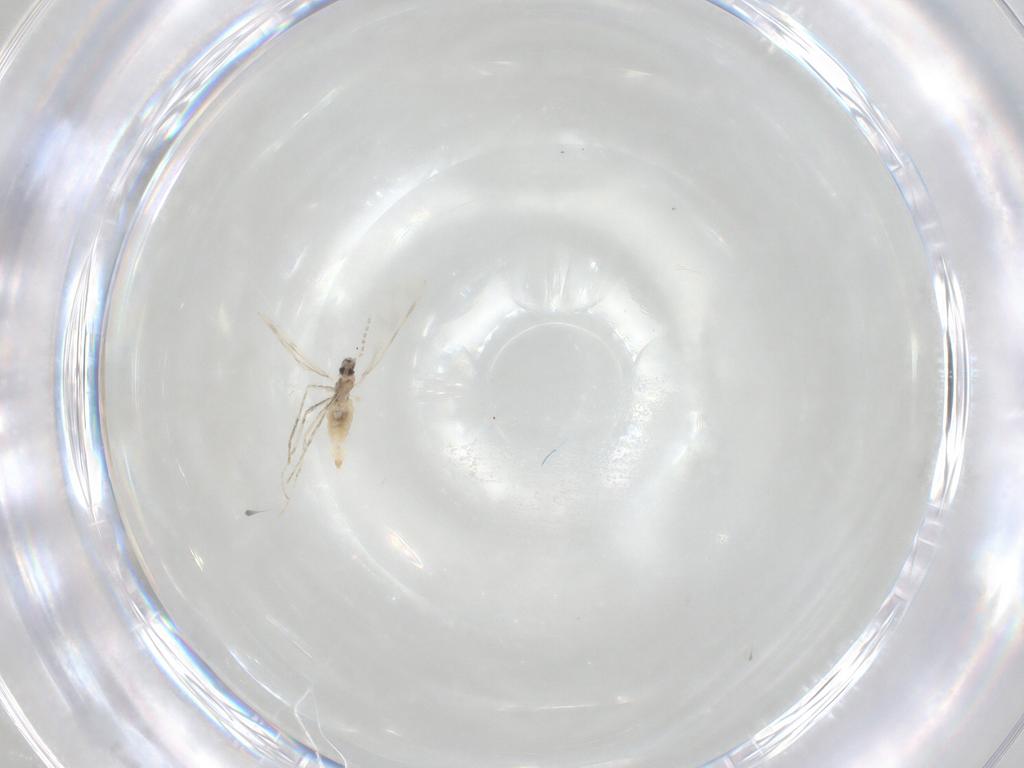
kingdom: Animalia
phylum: Arthropoda
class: Insecta
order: Diptera
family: Cecidomyiidae
